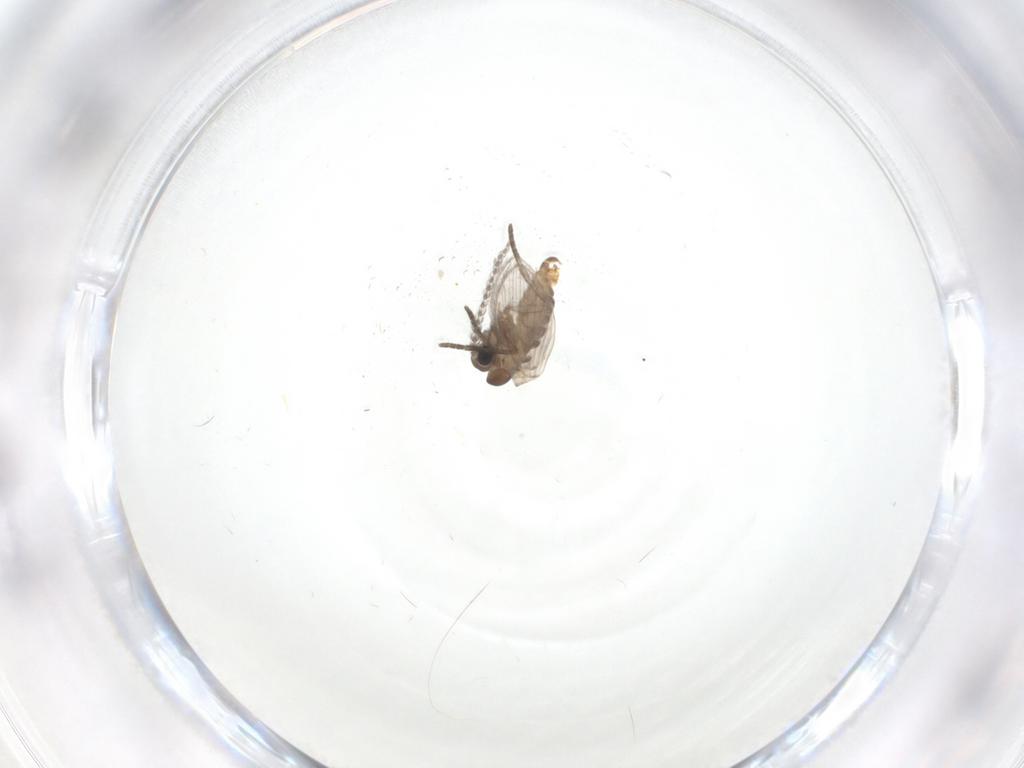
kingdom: Animalia
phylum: Arthropoda
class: Insecta
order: Diptera
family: Psychodidae
